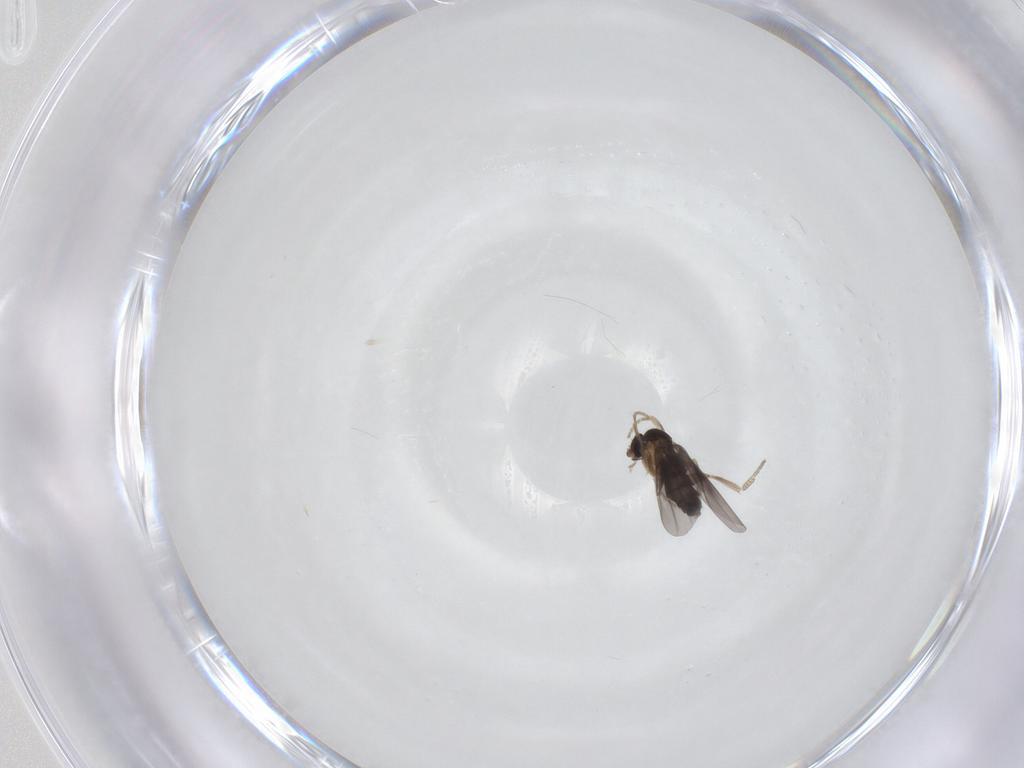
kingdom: Animalia
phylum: Arthropoda
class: Insecta
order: Diptera
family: Phoridae
